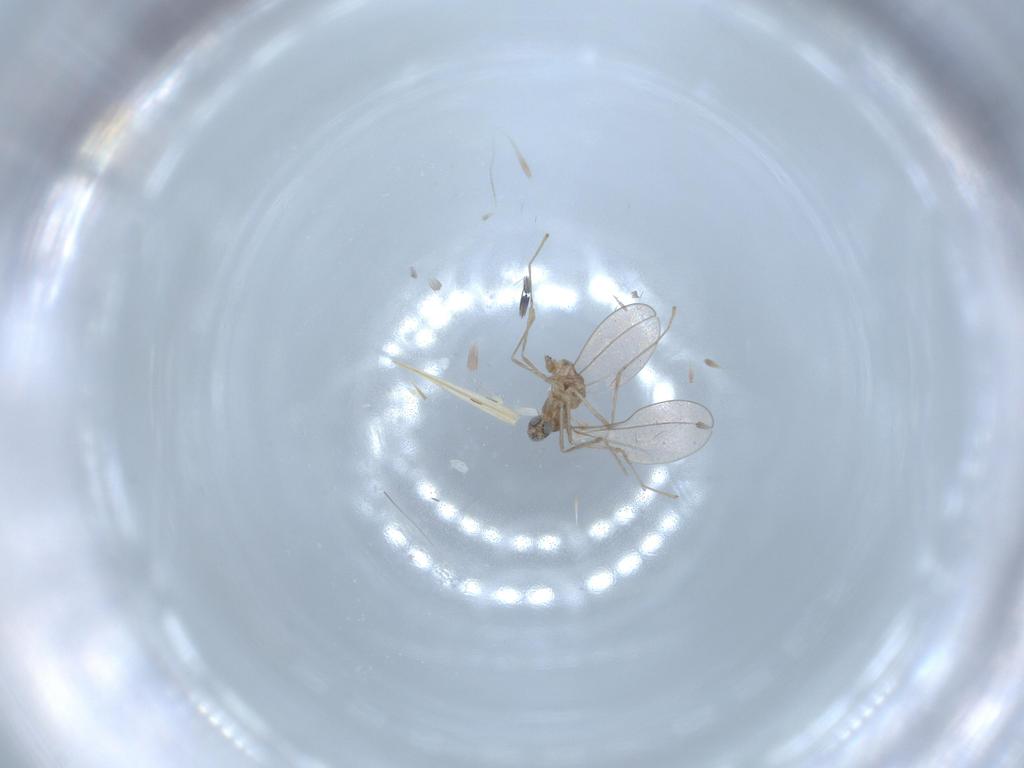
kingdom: Animalia
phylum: Arthropoda
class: Insecta
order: Diptera
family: Cecidomyiidae
